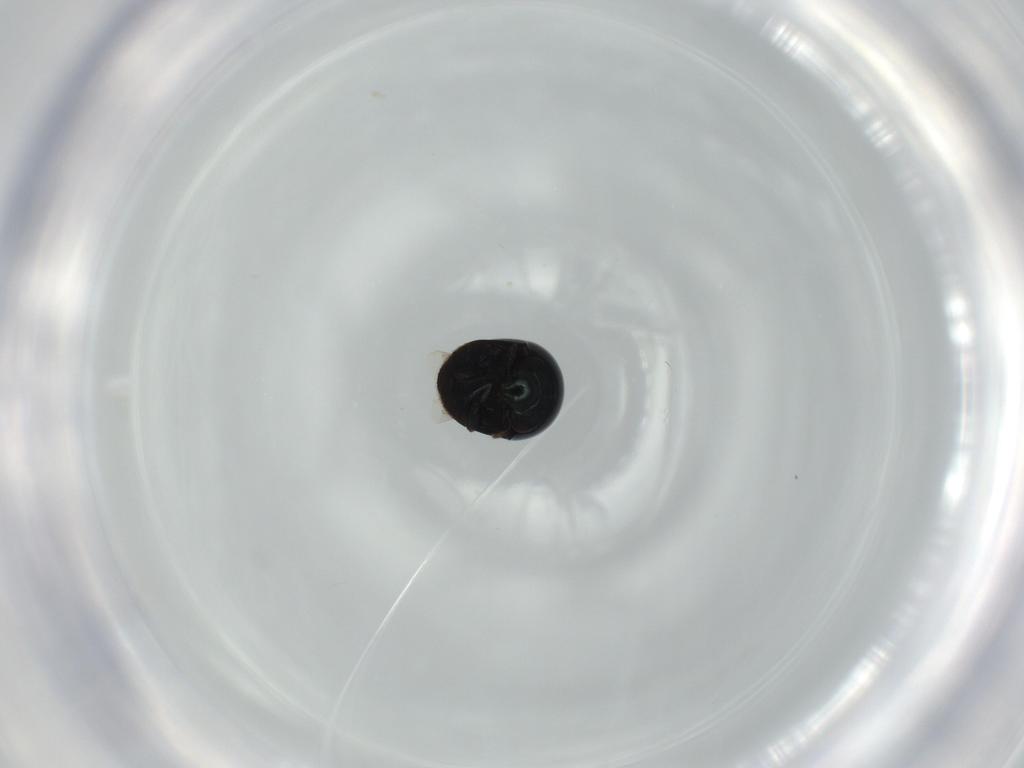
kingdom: Animalia
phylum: Arthropoda
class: Insecta
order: Coleoptera
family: Cybocephalidae
